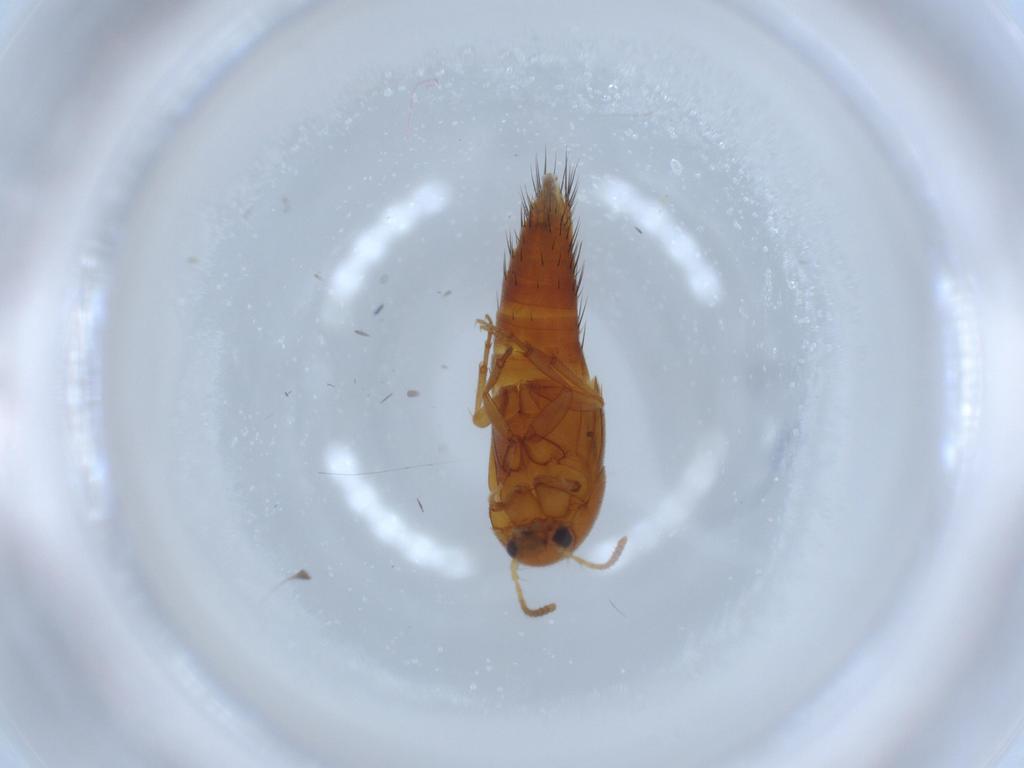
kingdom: Animalia
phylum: Arthropoda
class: Insecta
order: Coleoptera
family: Staphylinidae
